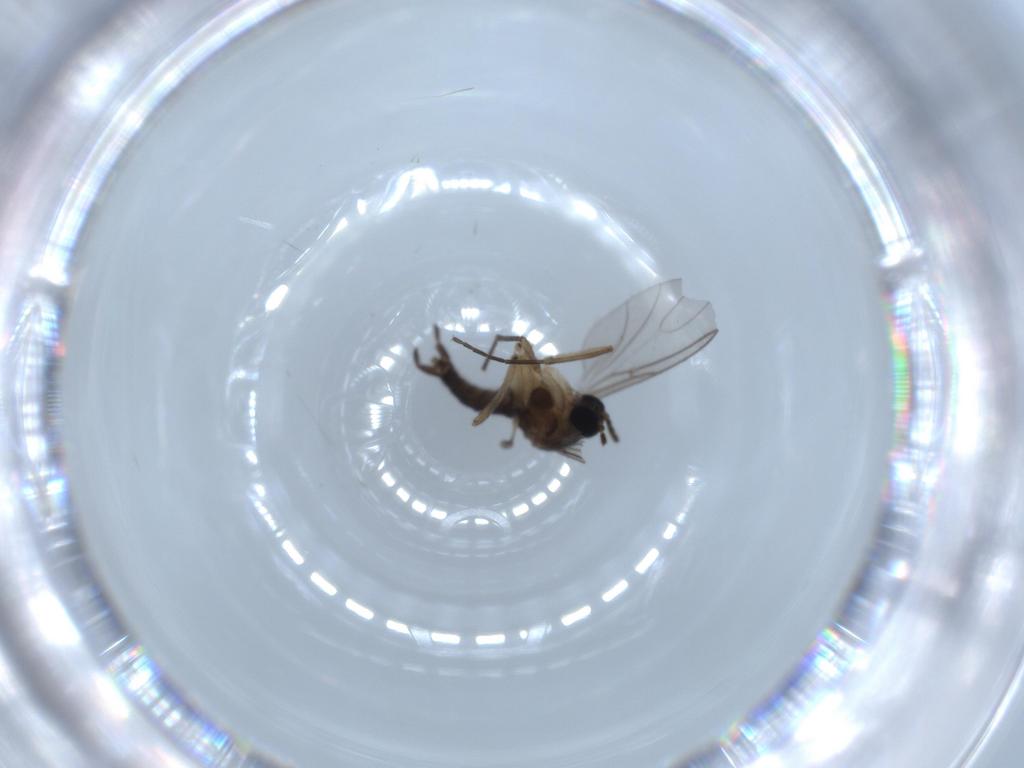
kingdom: Animalia
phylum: Arthropoda
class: Insecta
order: Diptera
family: Sciaridae
